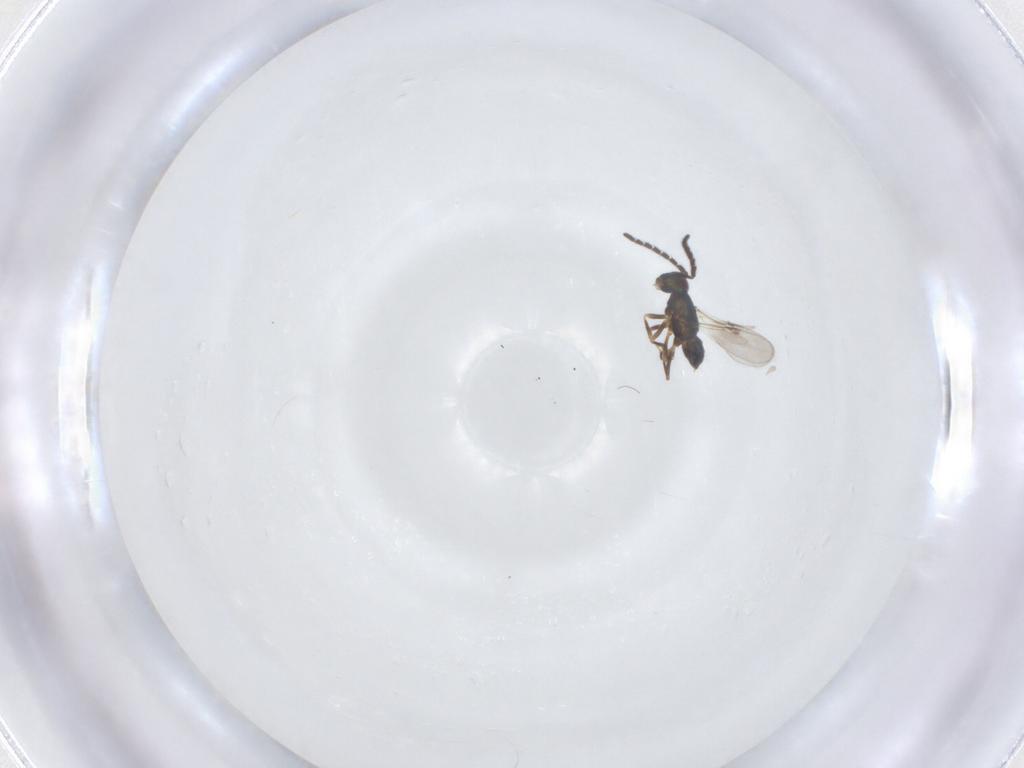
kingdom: Animalia
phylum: Arthropoda
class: Insecta
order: Hymenoptera
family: Encyrtidae
